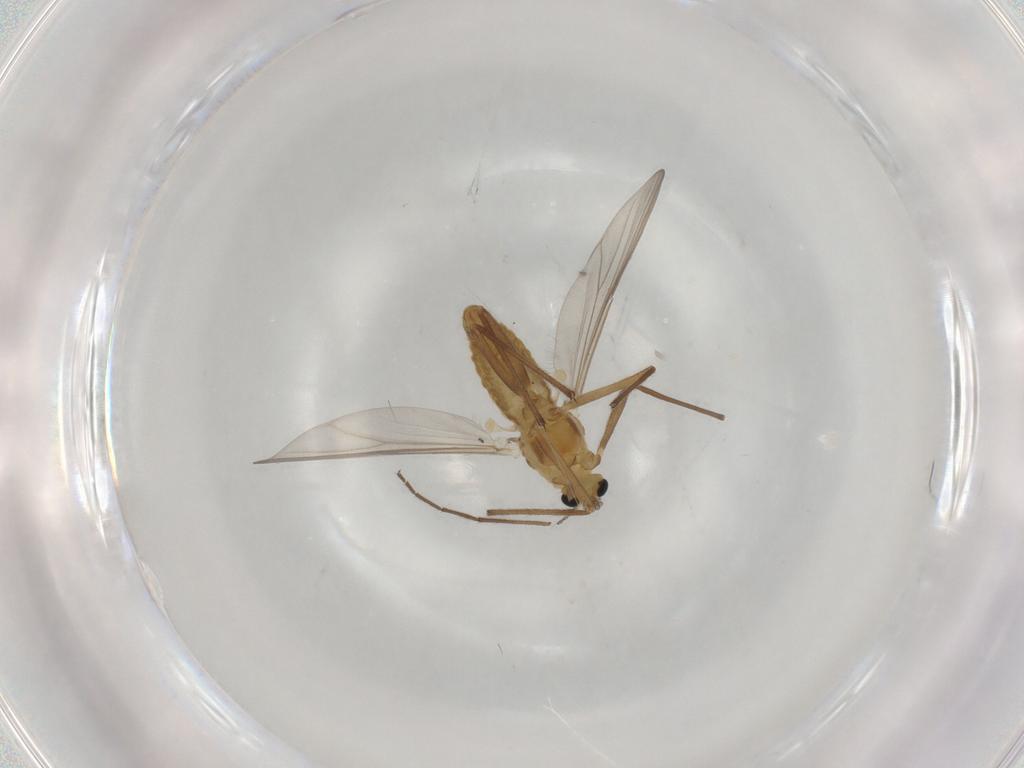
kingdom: Animalia
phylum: Arthropoda
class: Insecta
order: Diptera
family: Chironomidae
